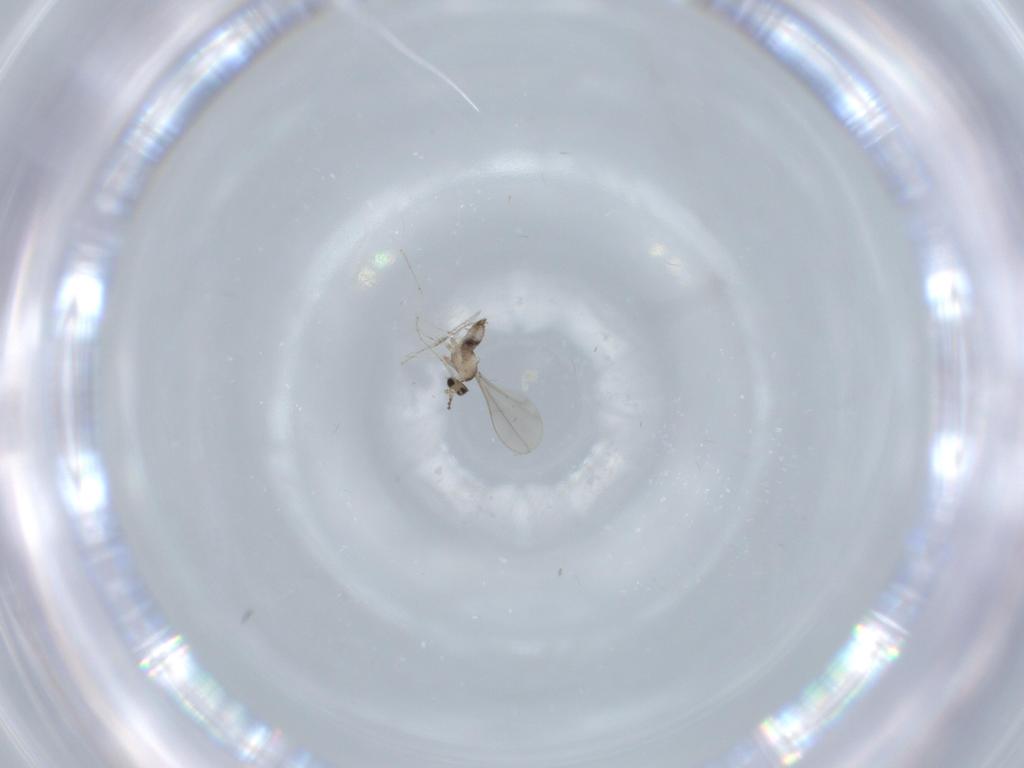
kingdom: Animalia
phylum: Arthropoda
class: Insecta
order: Diptera
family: Cecidomyiidae
